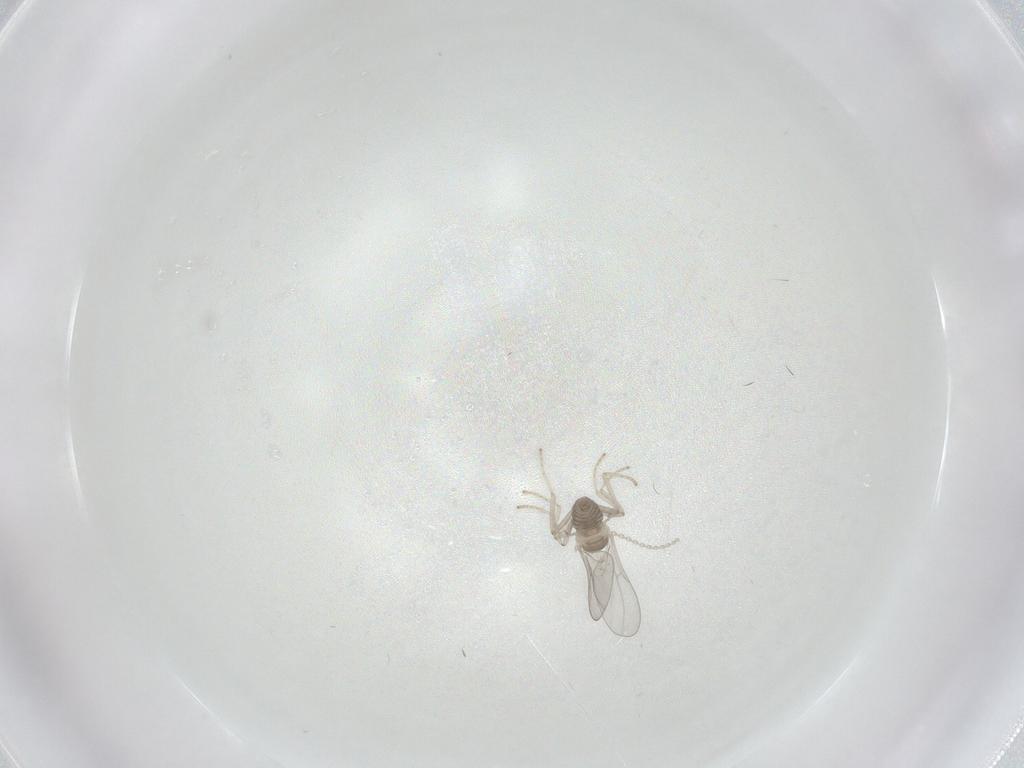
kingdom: Animalia
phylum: Arthropoda
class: Insecta
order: Diptera
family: Cecidomyiidae
